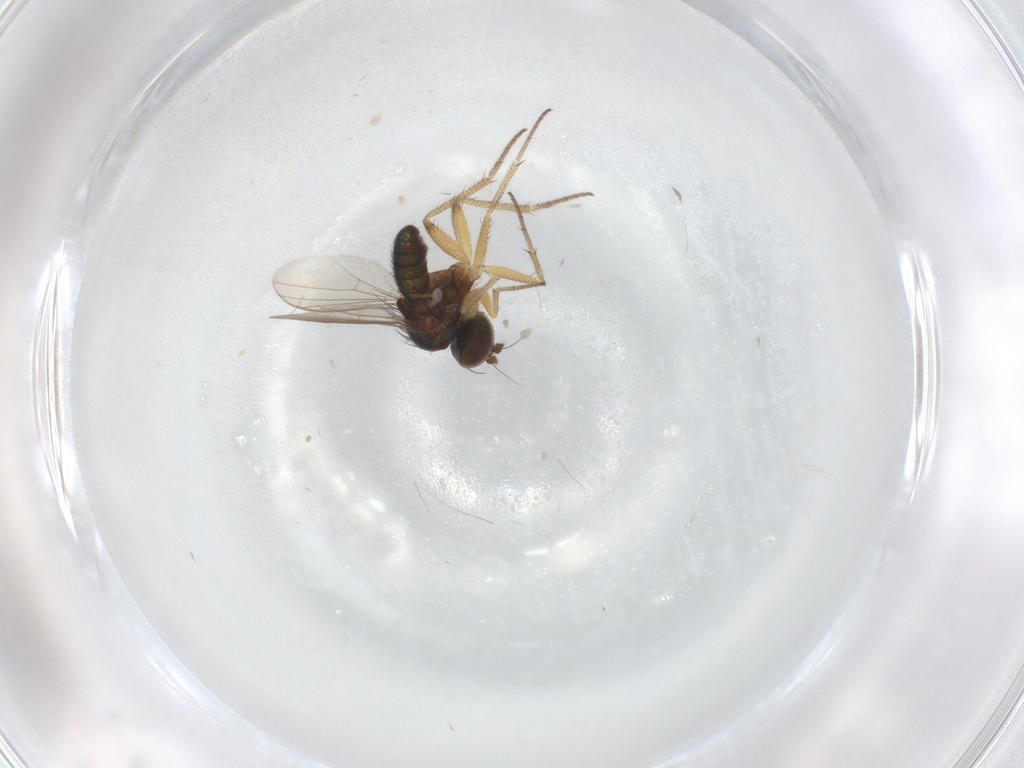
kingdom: Animalia
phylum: Arthropoda
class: Insecta
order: Diptera
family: Dolichopodidae
